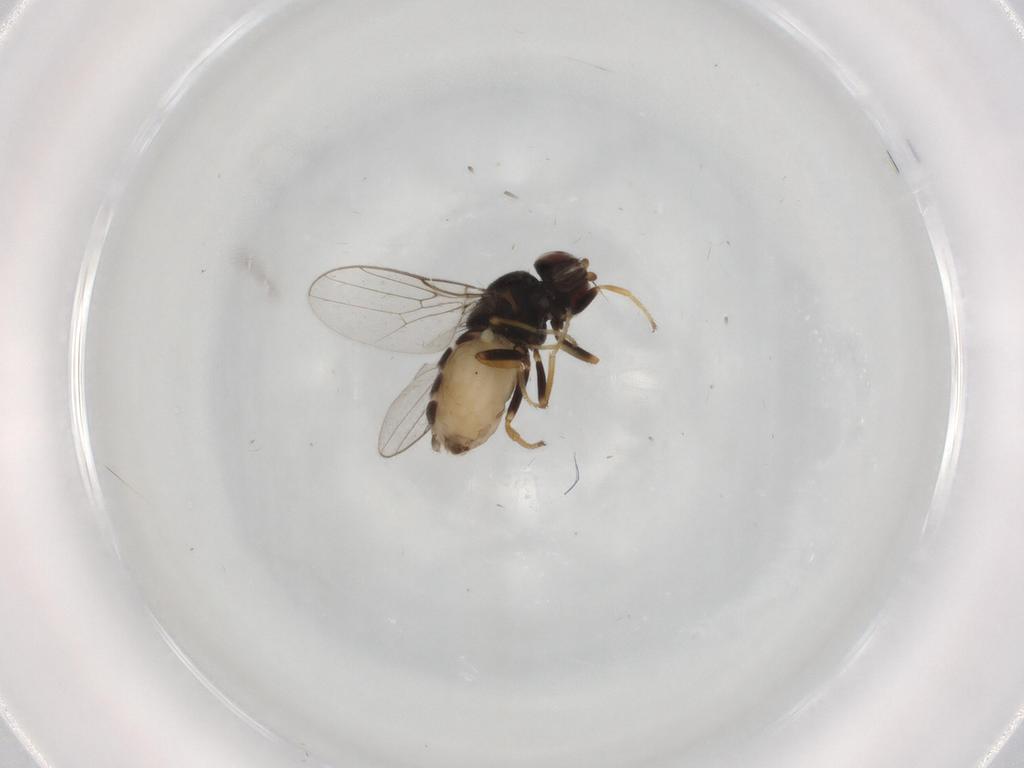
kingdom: Animalia
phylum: Arthropoda
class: Insecta
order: Diptera
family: Chloropidae
